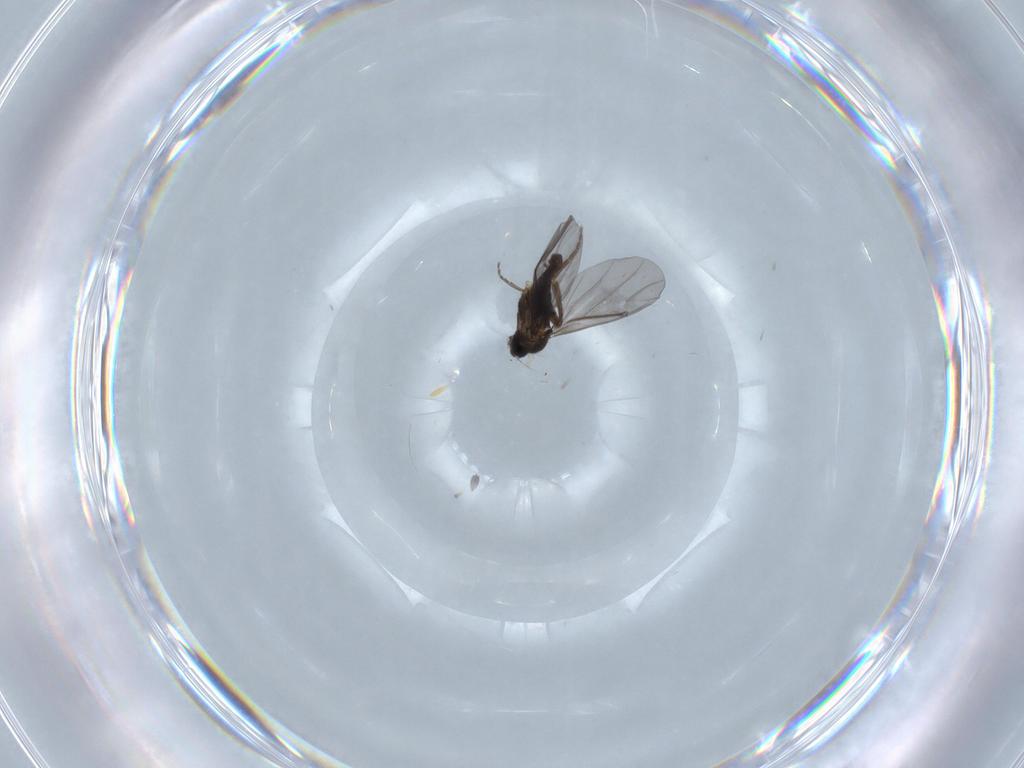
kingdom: Animalia
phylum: Arthropoda
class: Insecta
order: Diptera
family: Phoridae
